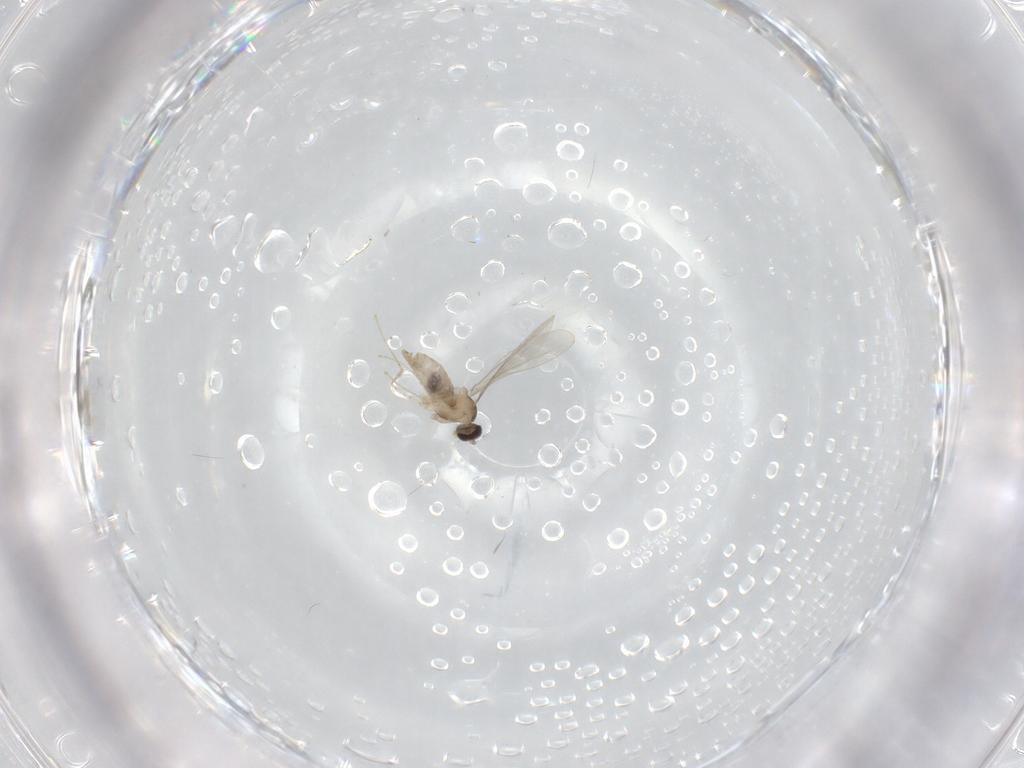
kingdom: Animalia
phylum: Arthropoda
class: Insecta
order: Diptera
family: Cecidomyiidae
